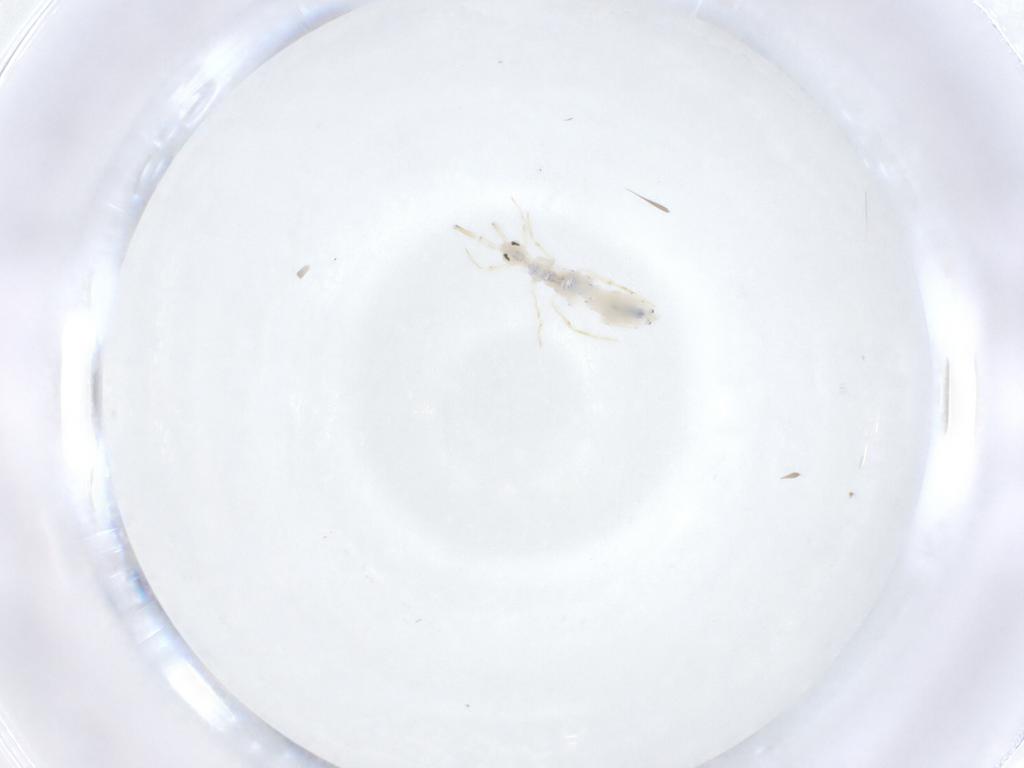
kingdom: Animalia
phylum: Arthropoda
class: Collembola
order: Entomobryomorpha
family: Entomobryidae
